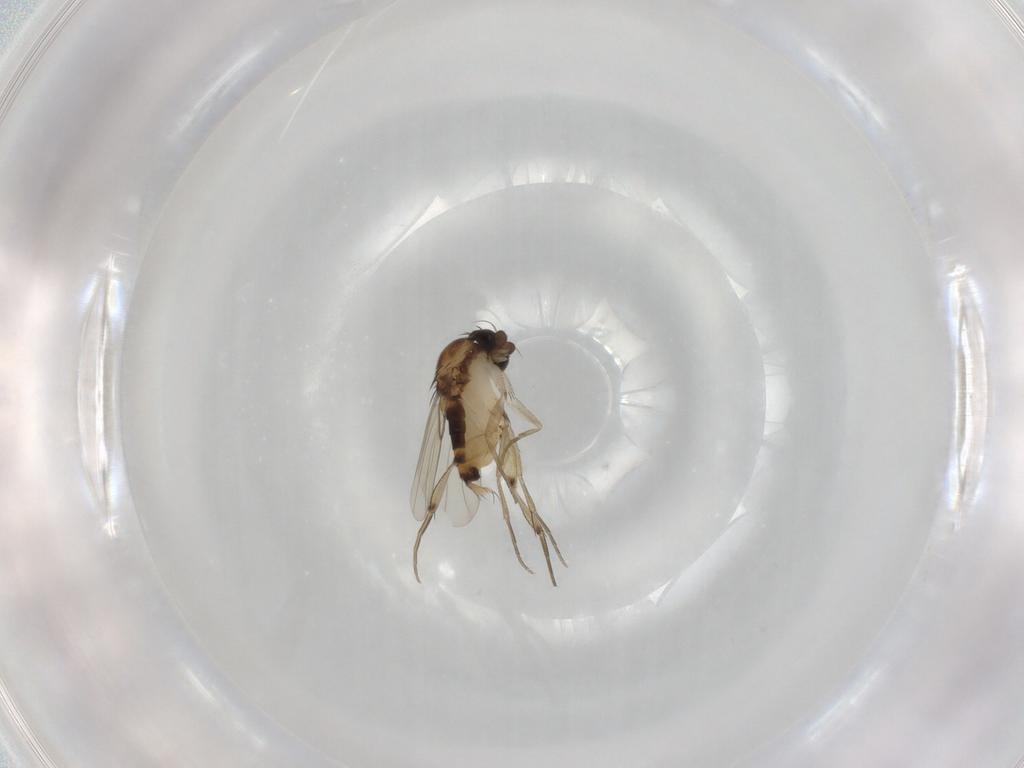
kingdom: Animalia
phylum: Arthropoda
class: Insecta
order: Diptera
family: Phoridae
